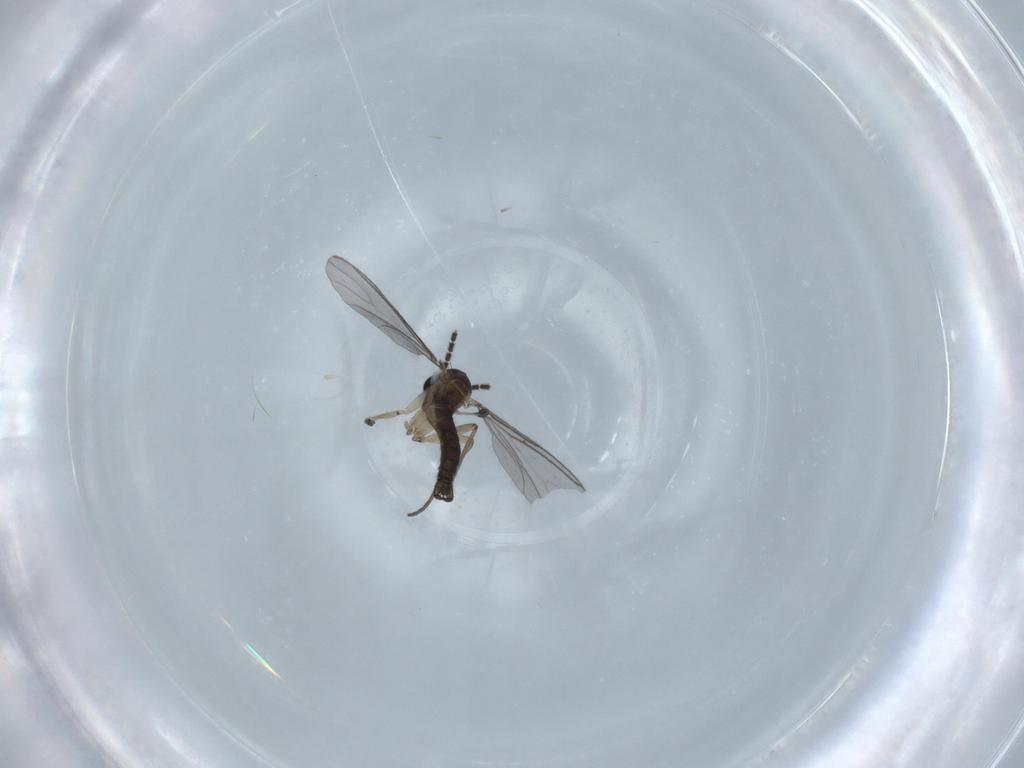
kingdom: Animalia
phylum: Arthropoda
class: Insecta
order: Diptera
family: Sciaridae
